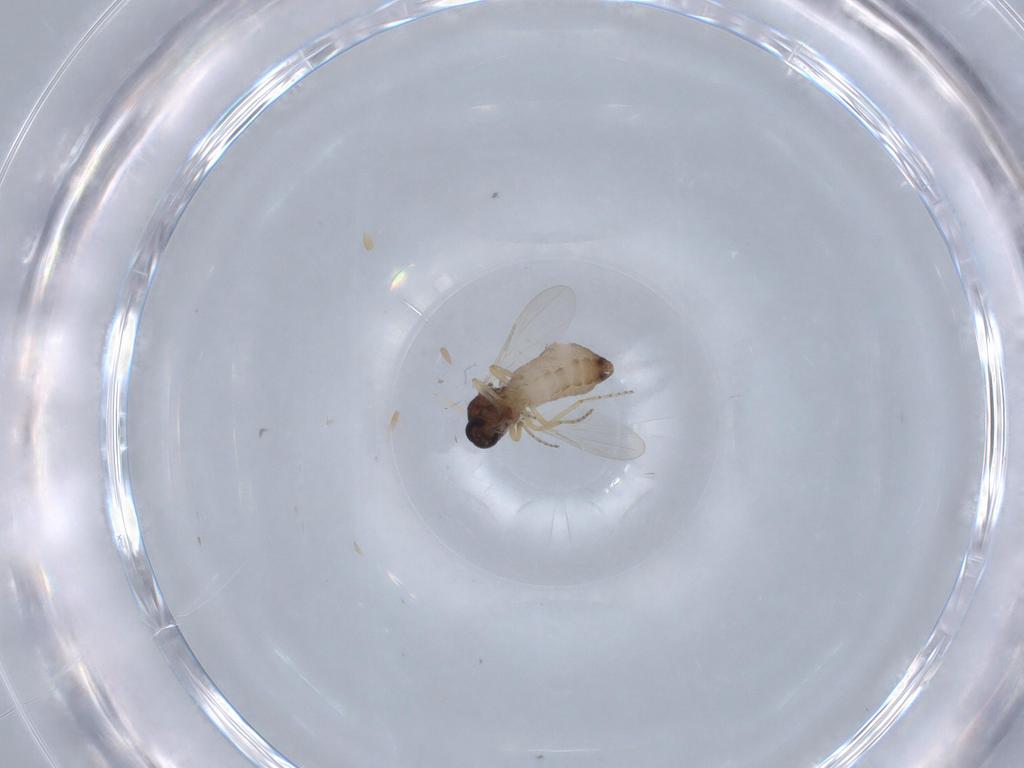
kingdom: Animalia
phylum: Arthropoda
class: Insecta
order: Diptera
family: Ceratopogonidae
